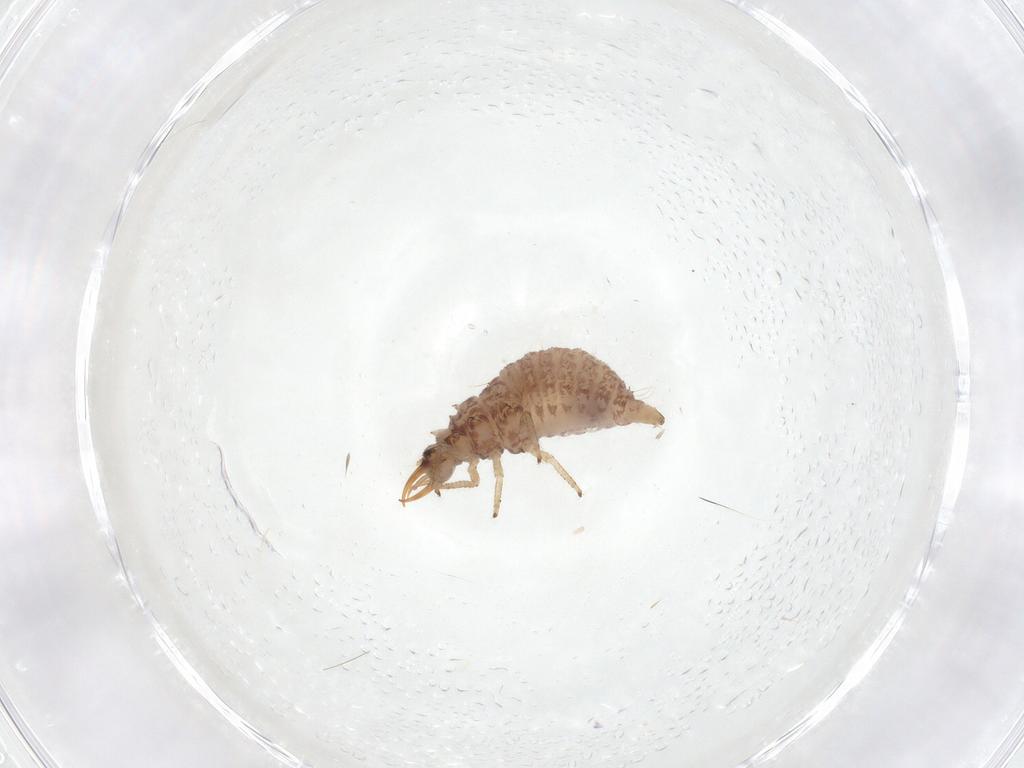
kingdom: Animalia
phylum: Arthropoda
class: Insecta
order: Neuroptera
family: Chrysopidae
